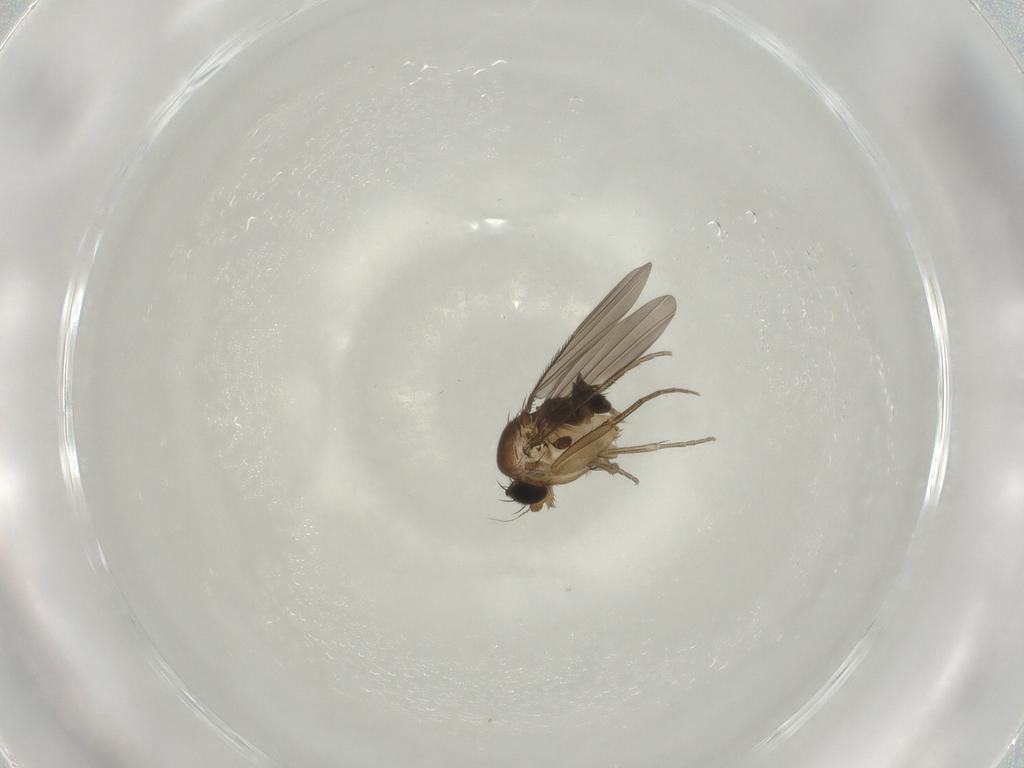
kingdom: Animalia
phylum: Arthropoda
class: Insecta
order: Diptera
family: Phoridae
